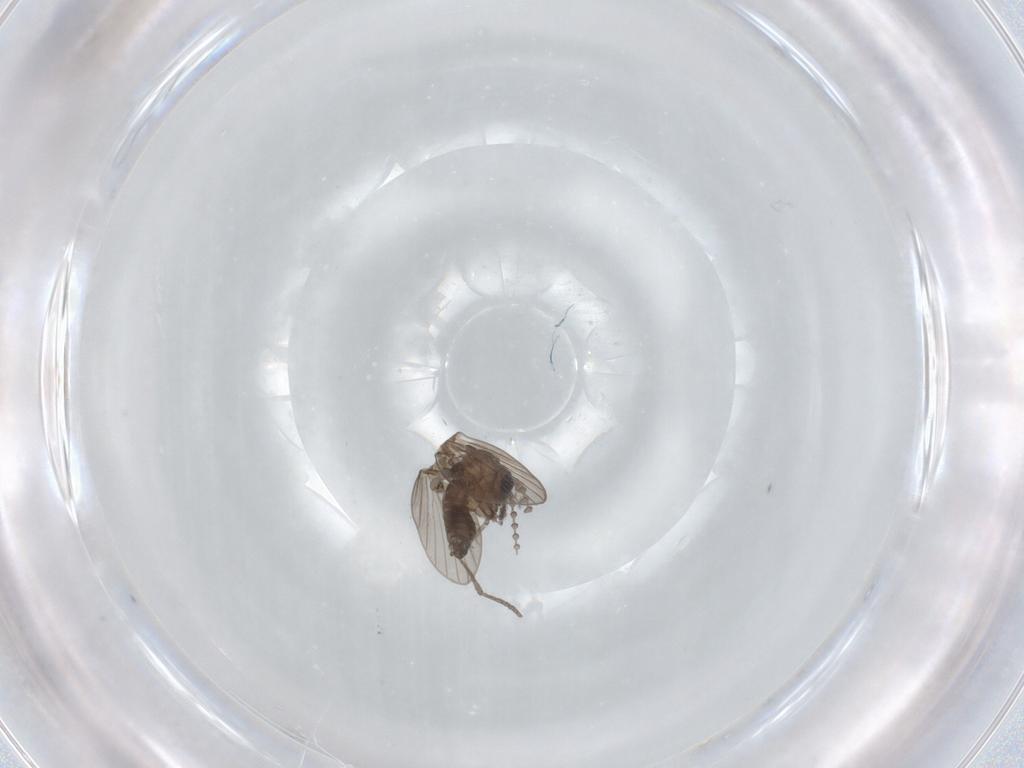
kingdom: Animalia
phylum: Arthropoda
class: Insecta
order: Diptera
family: Psychodidae
